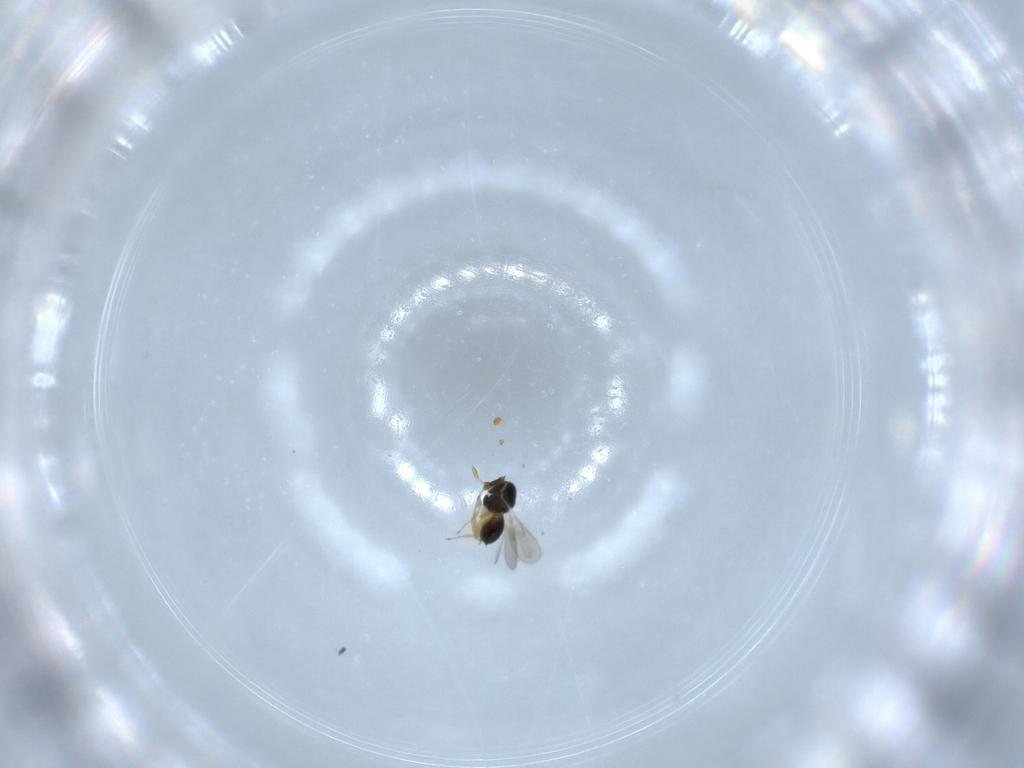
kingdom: Animalia
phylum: Arthropoda
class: Insecta
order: Hymenoptera
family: Scelionidae
